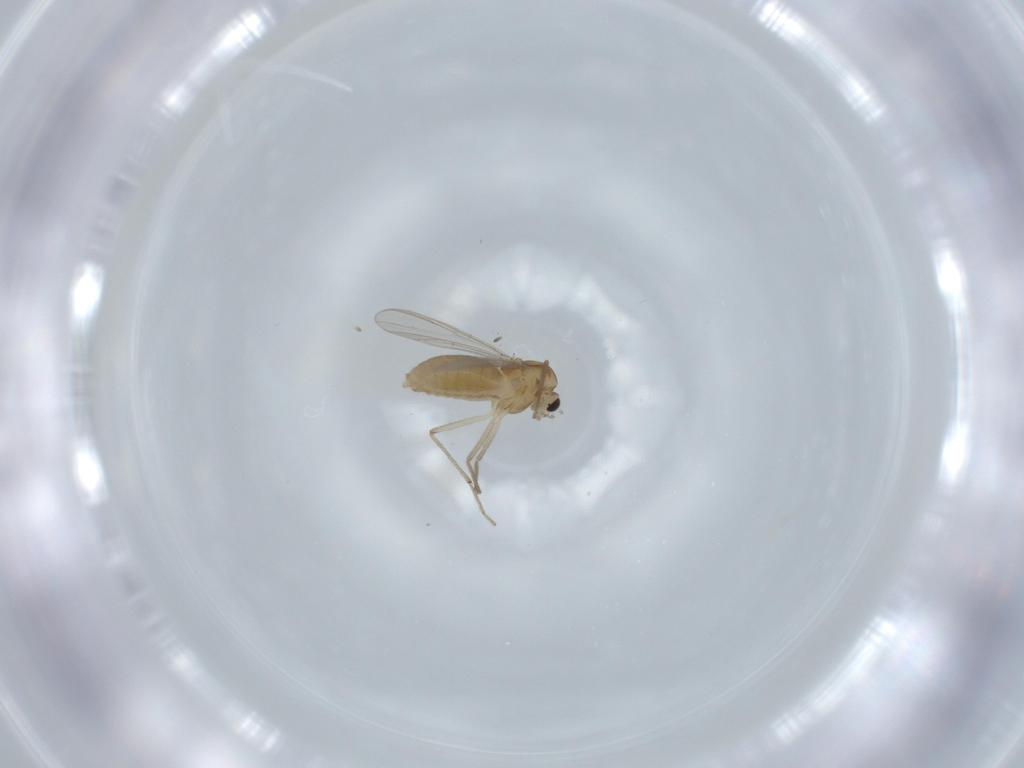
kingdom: Animalia
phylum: Arthropoda
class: Insecta
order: Diptera
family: Chironomidae
